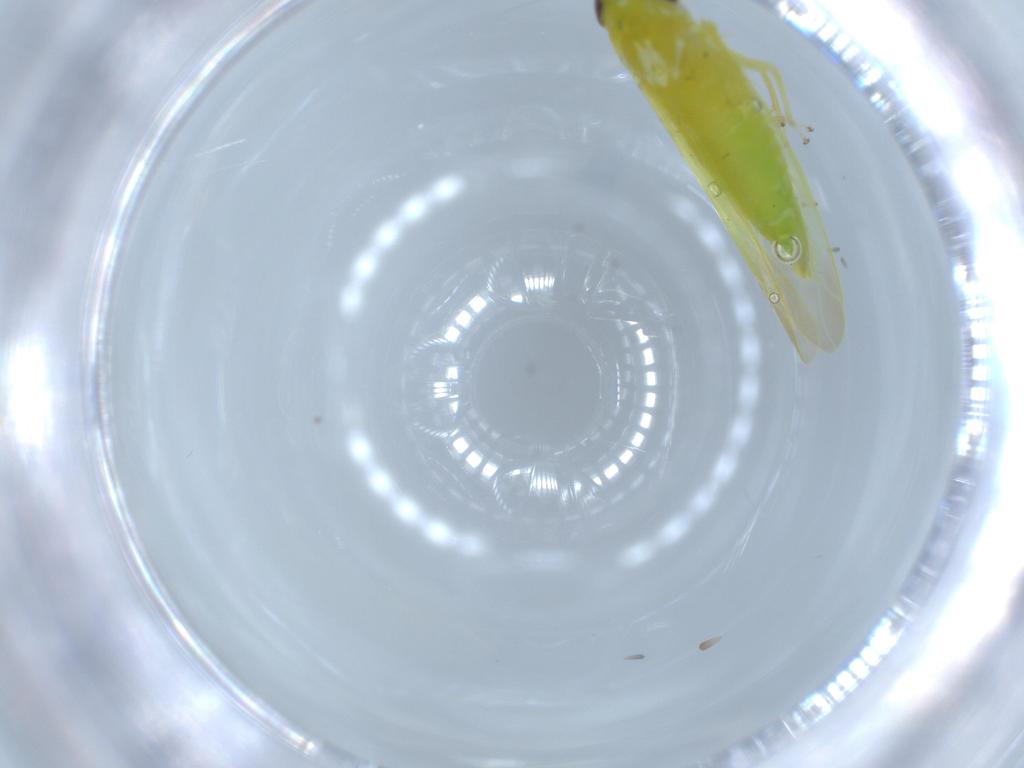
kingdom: Animalia
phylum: Arthropoda
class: Insecta
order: Hemiptera
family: Cicadellidae
